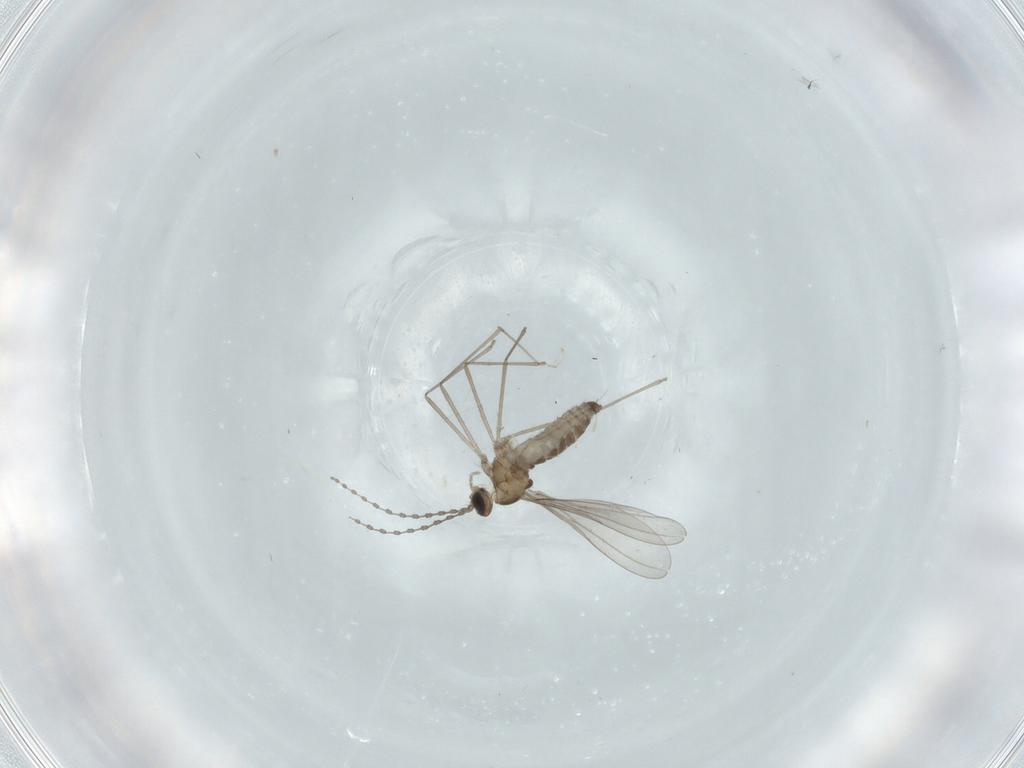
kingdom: Animalia
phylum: Arthropoda
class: Insecta
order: Diptera
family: Cecidomyiidae
